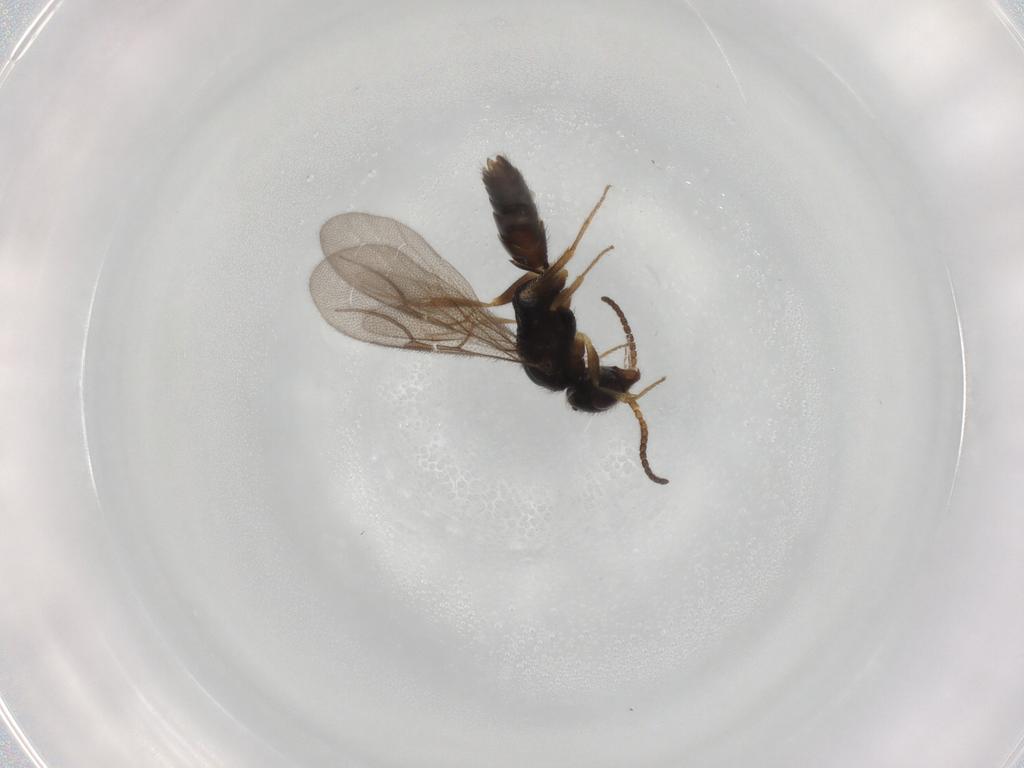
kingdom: Animalia
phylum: Arthropoda
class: Insecta
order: Hymenoptera
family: Bethylidae
